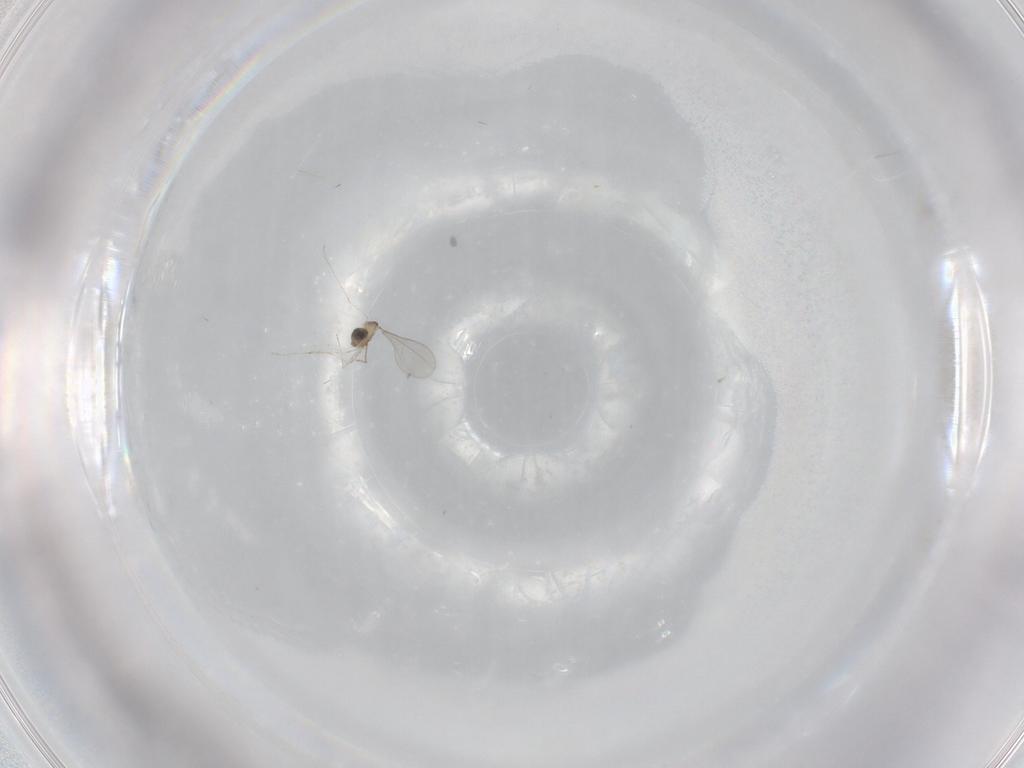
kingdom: Animalia
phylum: Arthropoda
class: Insecta
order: Diptera
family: Cecidomyiidae
